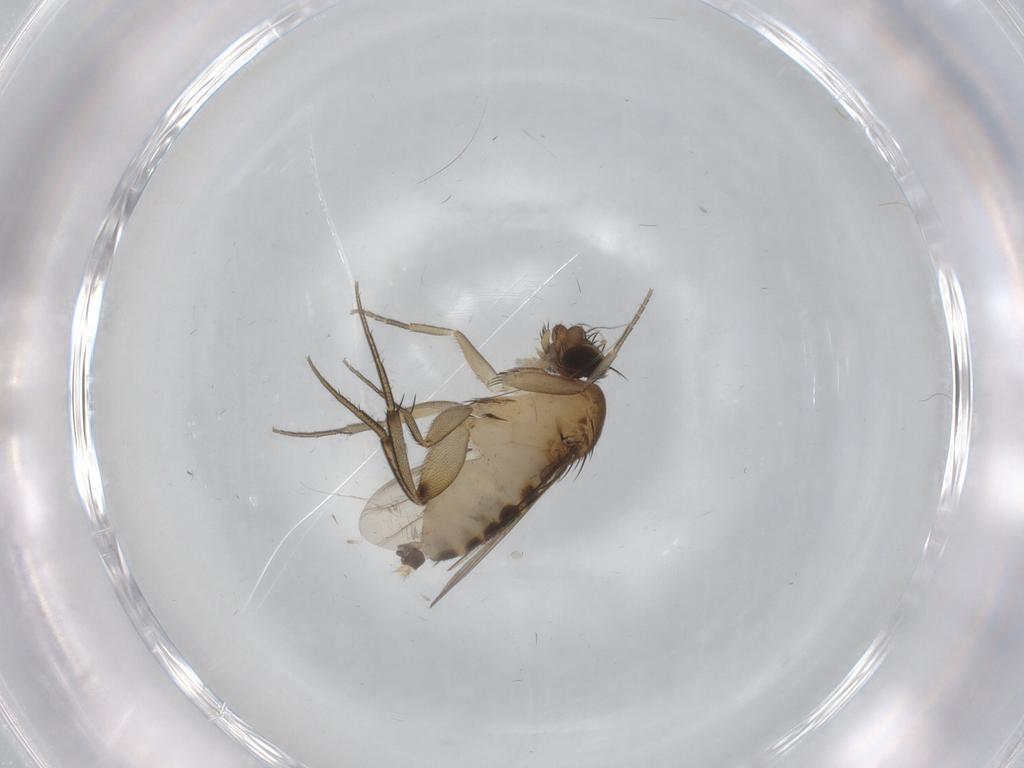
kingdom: Animalia
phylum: Arthropoda
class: Insecta
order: Diptera
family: Phoridae
